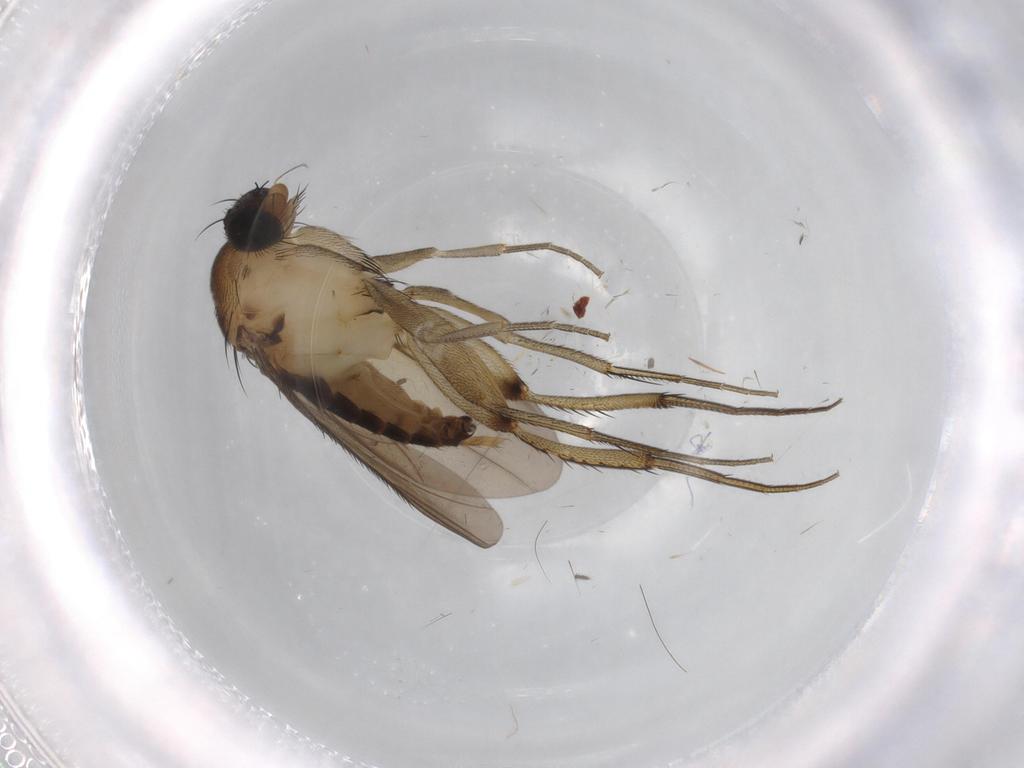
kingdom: Animalia
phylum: Arthropoda
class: Insecta
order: Diptera
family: Phoridae
